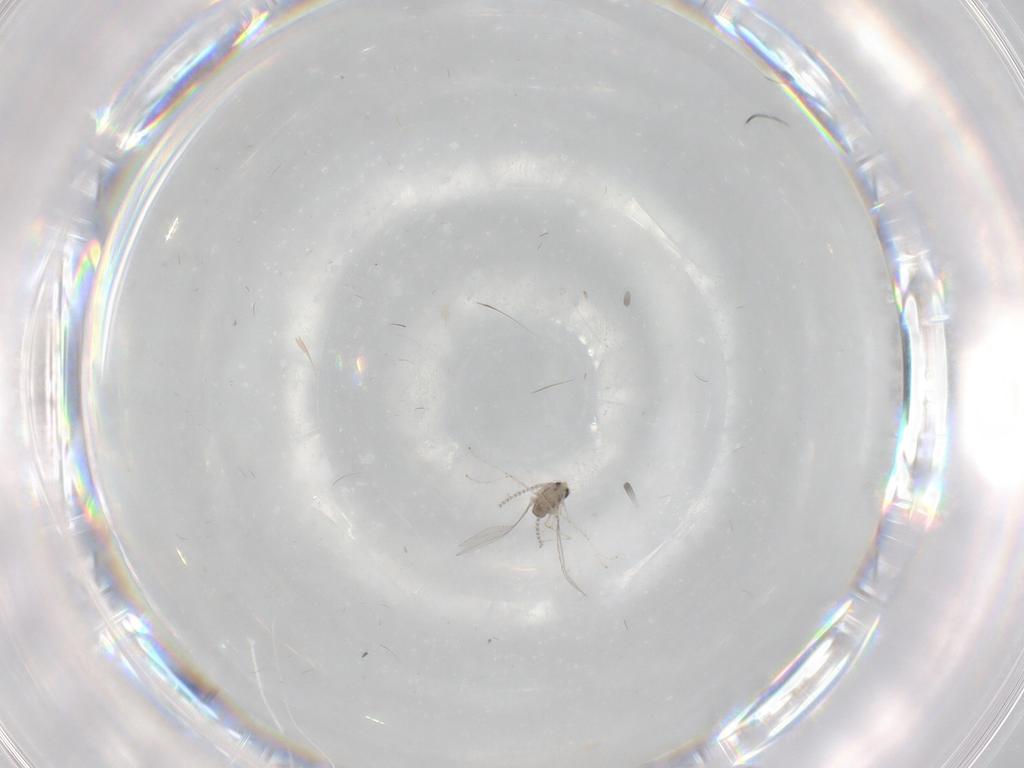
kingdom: Animalia
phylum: Arthropoda
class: Insecta
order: Diptera
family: Cecidomyiidae
